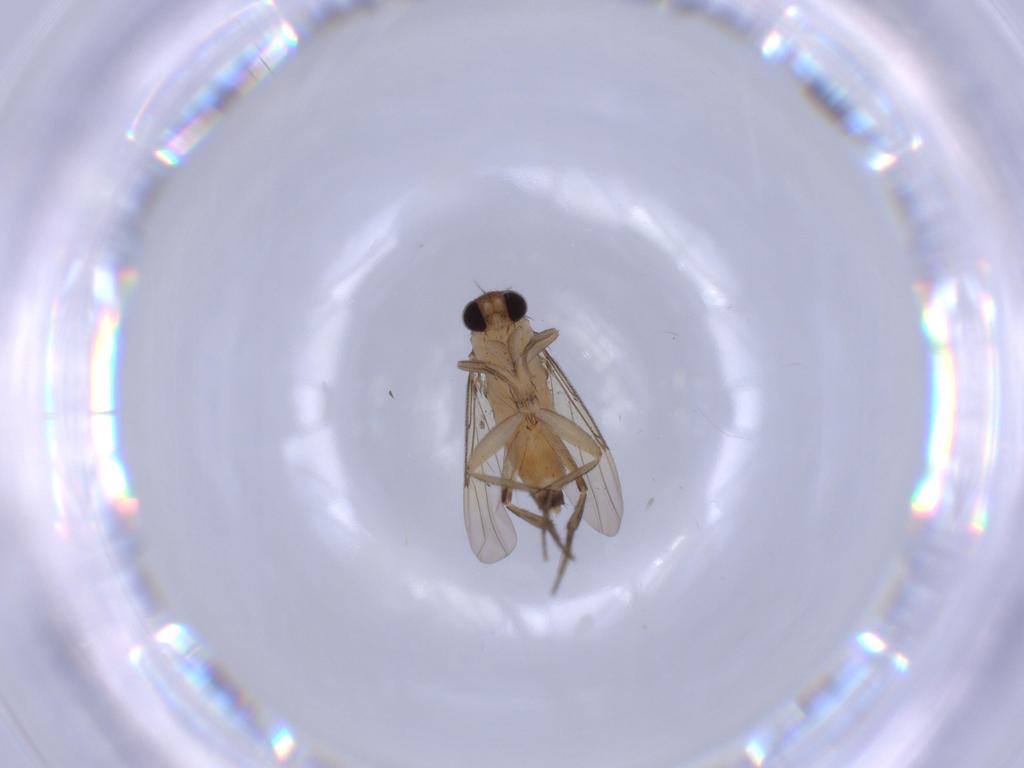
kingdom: Animalia
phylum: Arthropoda
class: Insecta
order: Diptera
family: Phoridae
